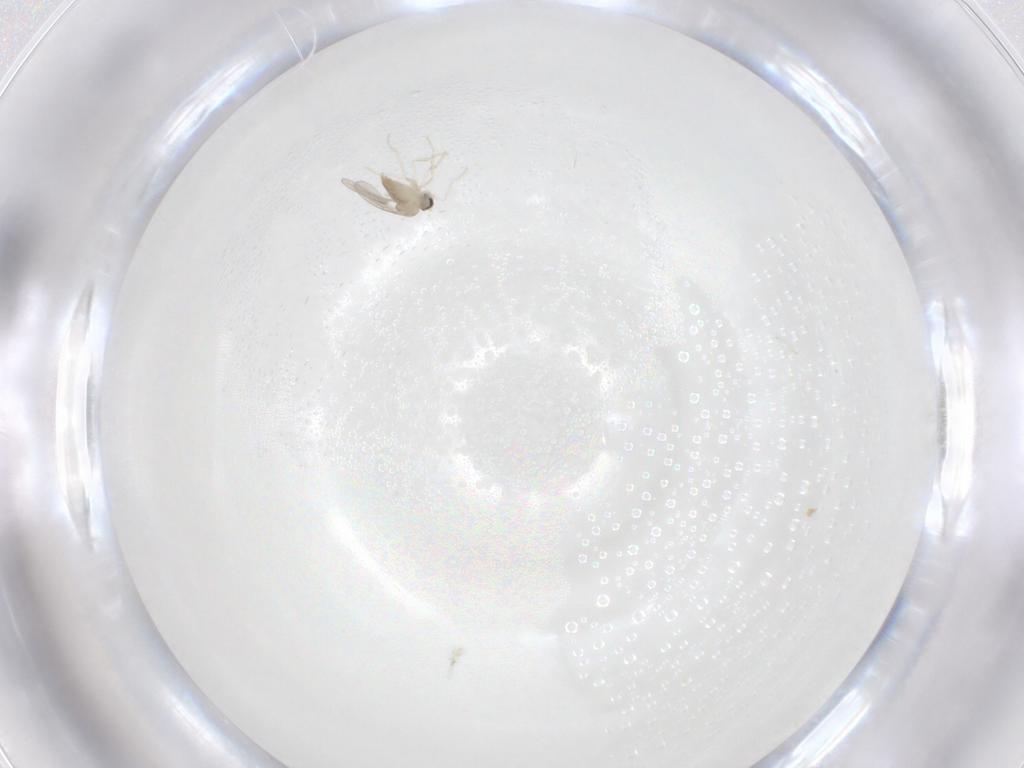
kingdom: Animalia
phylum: Arthropoda
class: Insecta
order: Diptera
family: Cecidomyiidae
